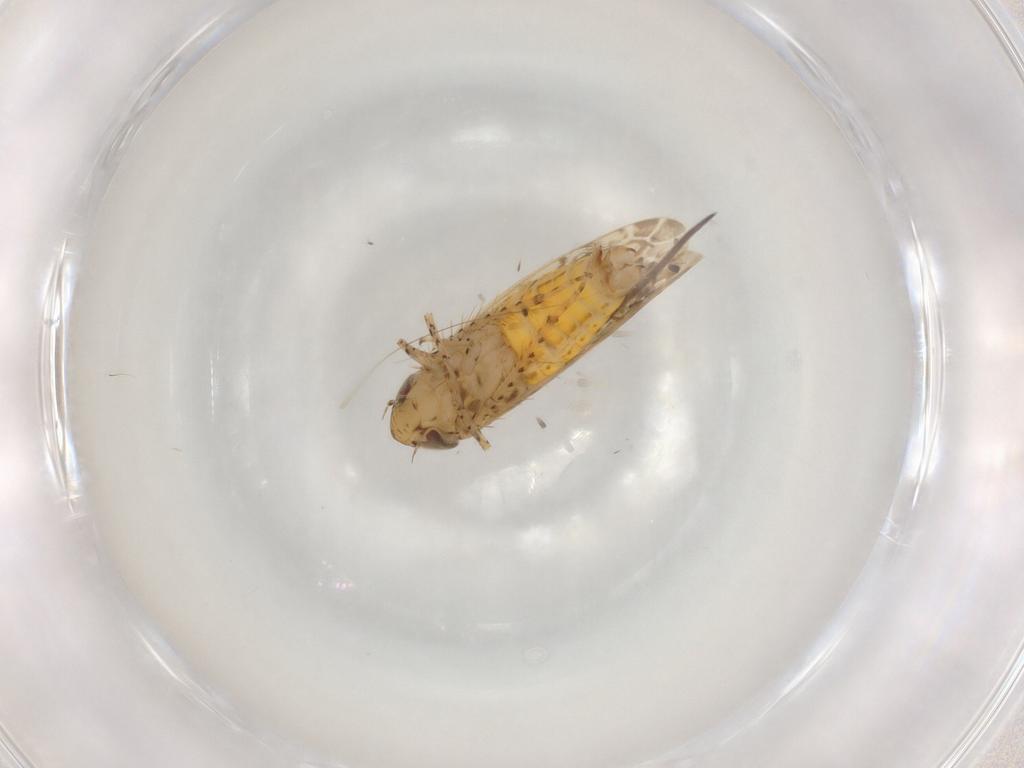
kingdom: Animalia
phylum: Arthropoda
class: Insecta
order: Hemiptera
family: Cicadellidae
